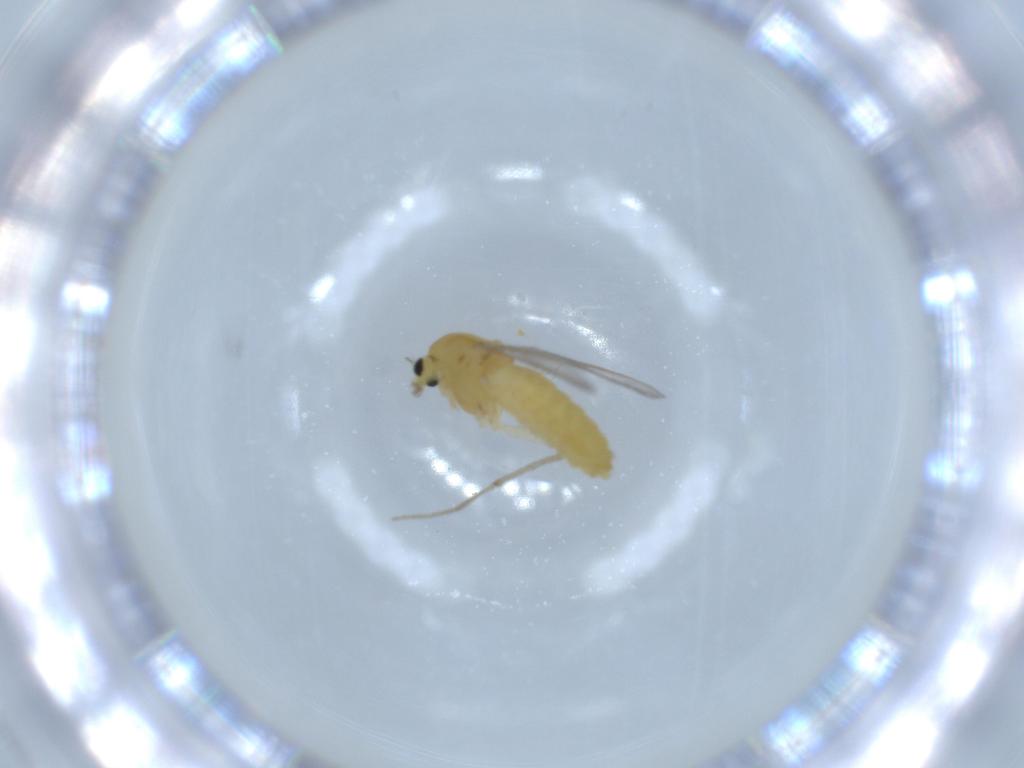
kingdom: Animalia
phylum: Arthropoda
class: Insecta
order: Diptera
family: Chironomidae
